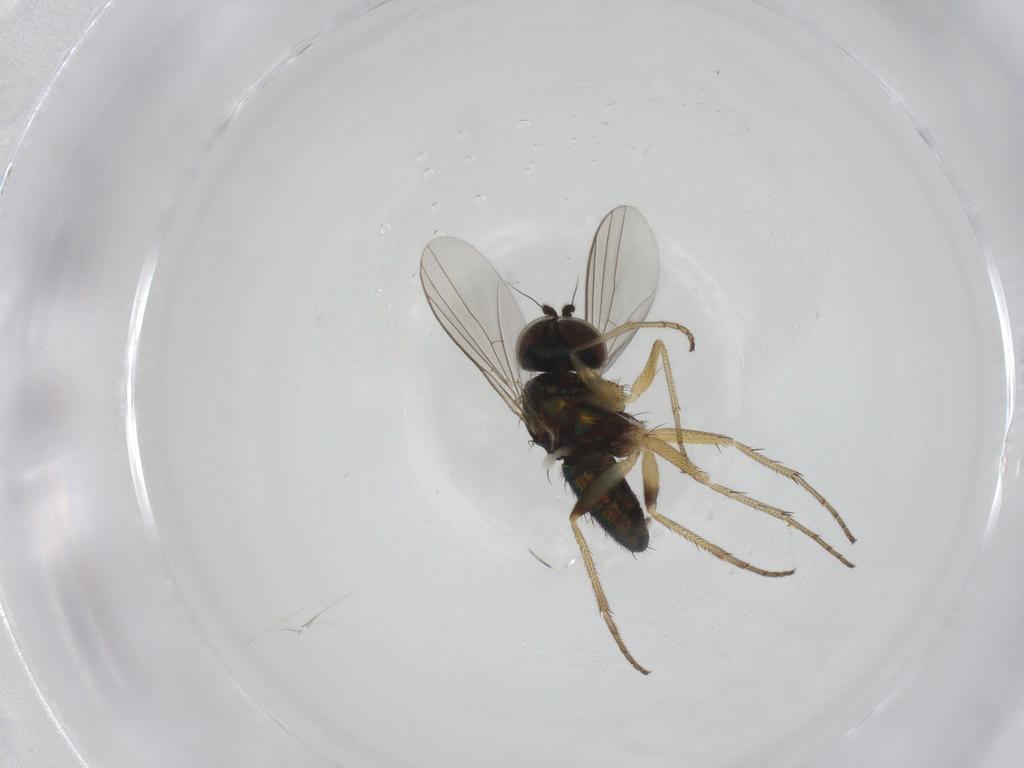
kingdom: Animalia
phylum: Arthropoda
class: Insecta
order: Diptera
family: Dolichopodidae
